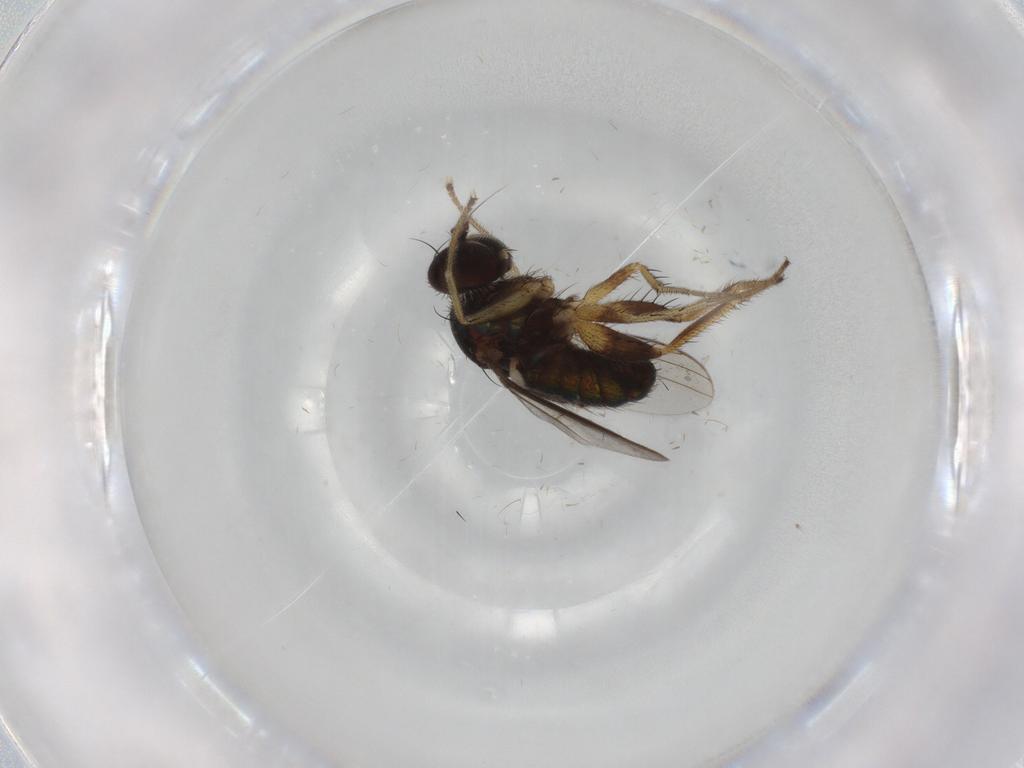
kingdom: Animalia
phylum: Arthropoda
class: Insecta
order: Diptera
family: Dolichopodidae
